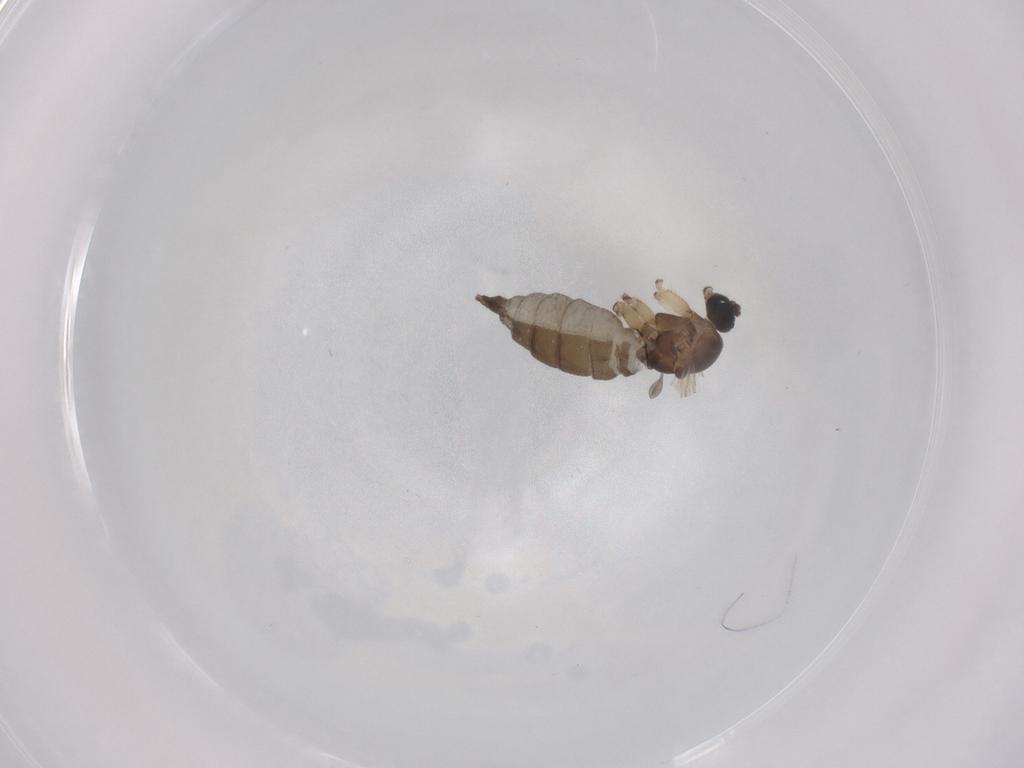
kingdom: Animalia
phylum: Arthropoda
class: Insecta
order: Diptera
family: Sciaridae
